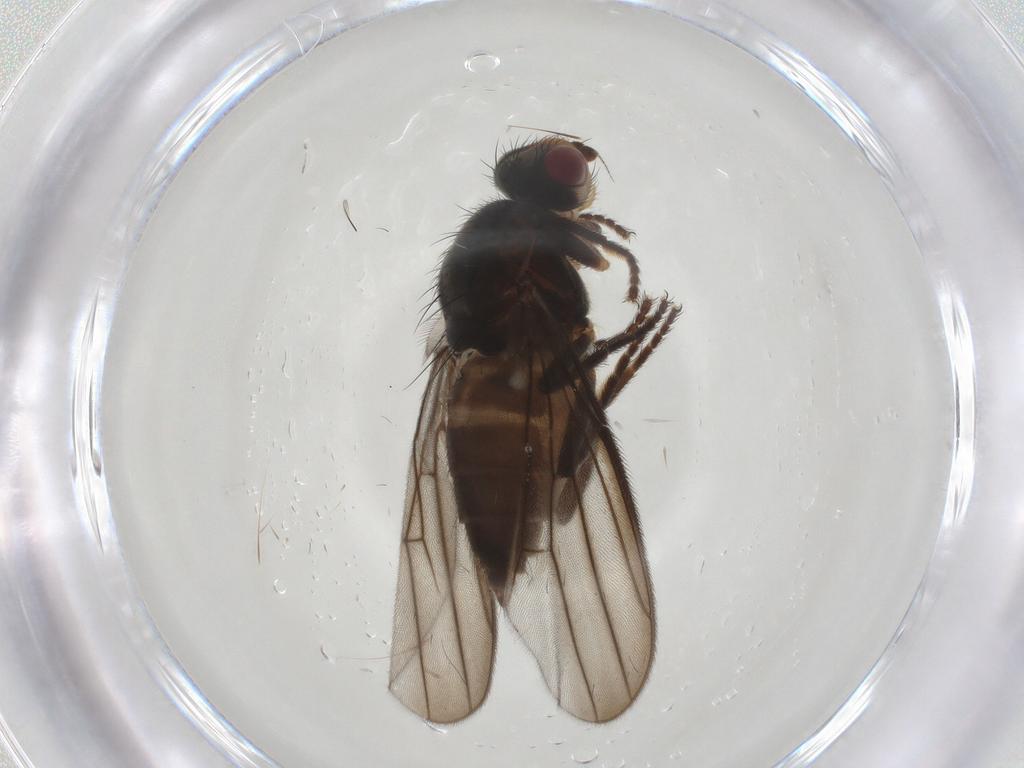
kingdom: Animalia
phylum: Arthropoda
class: Insecta
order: Diptera
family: Chloropidae
